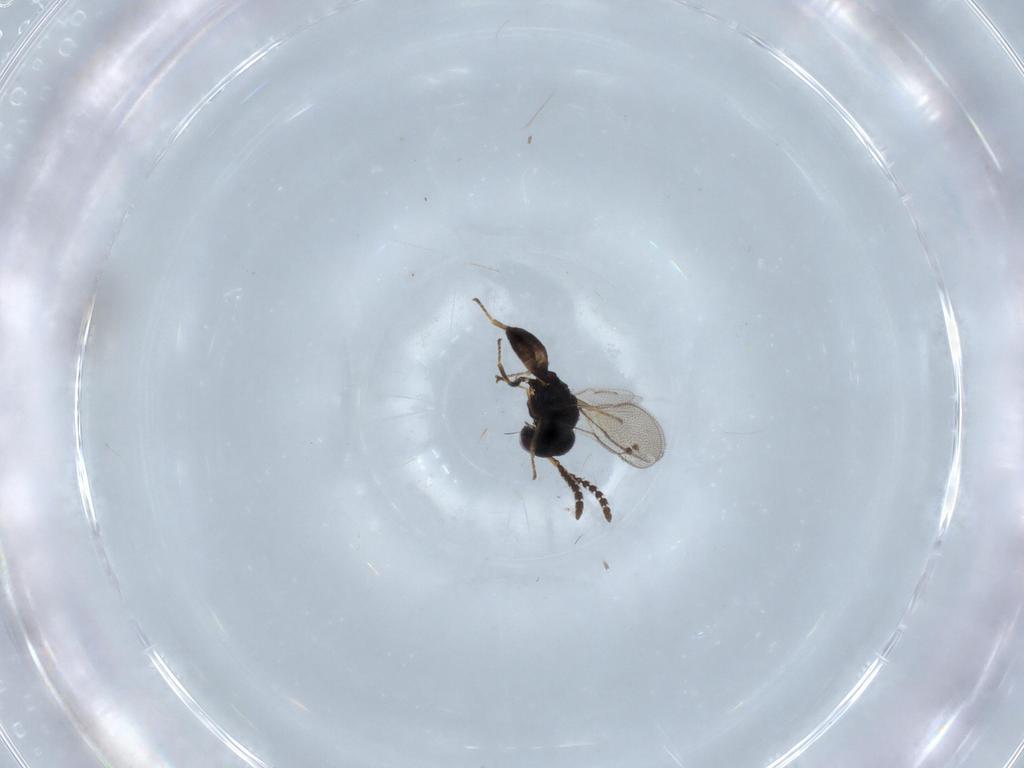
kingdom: Animalia
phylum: Arthropoda
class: Insecta
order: Hymenoptera
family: Agaonidae
